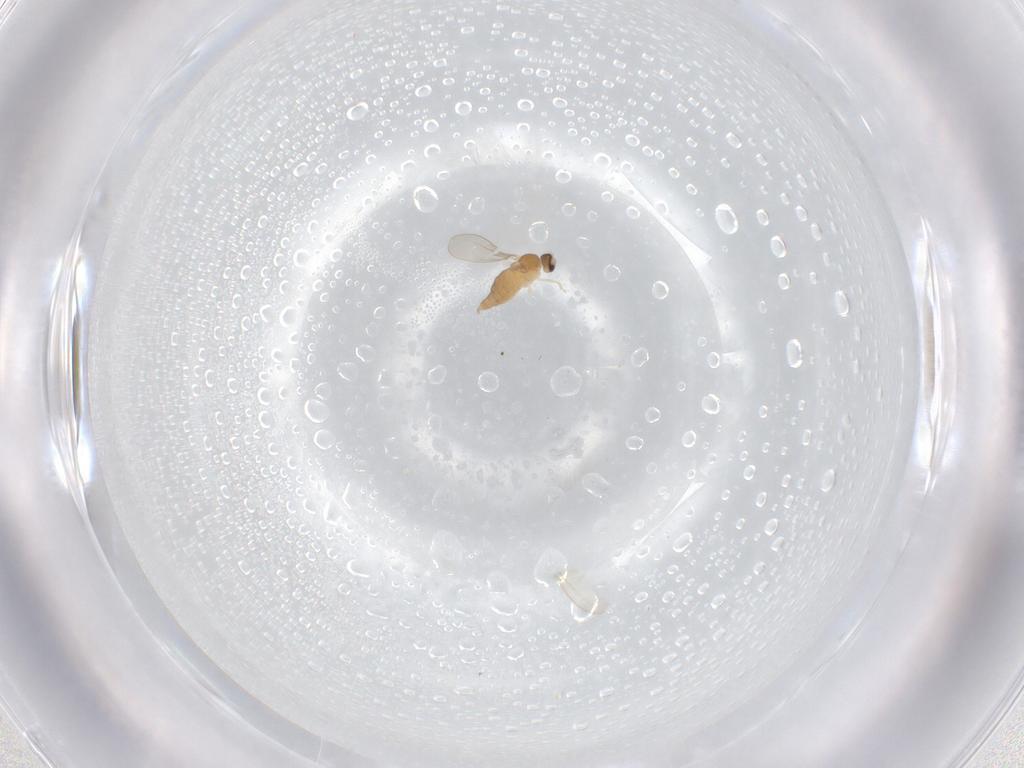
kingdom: Animalia
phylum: Arthropoda
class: Insecta
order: Diptera
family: Cecidomyiidae
